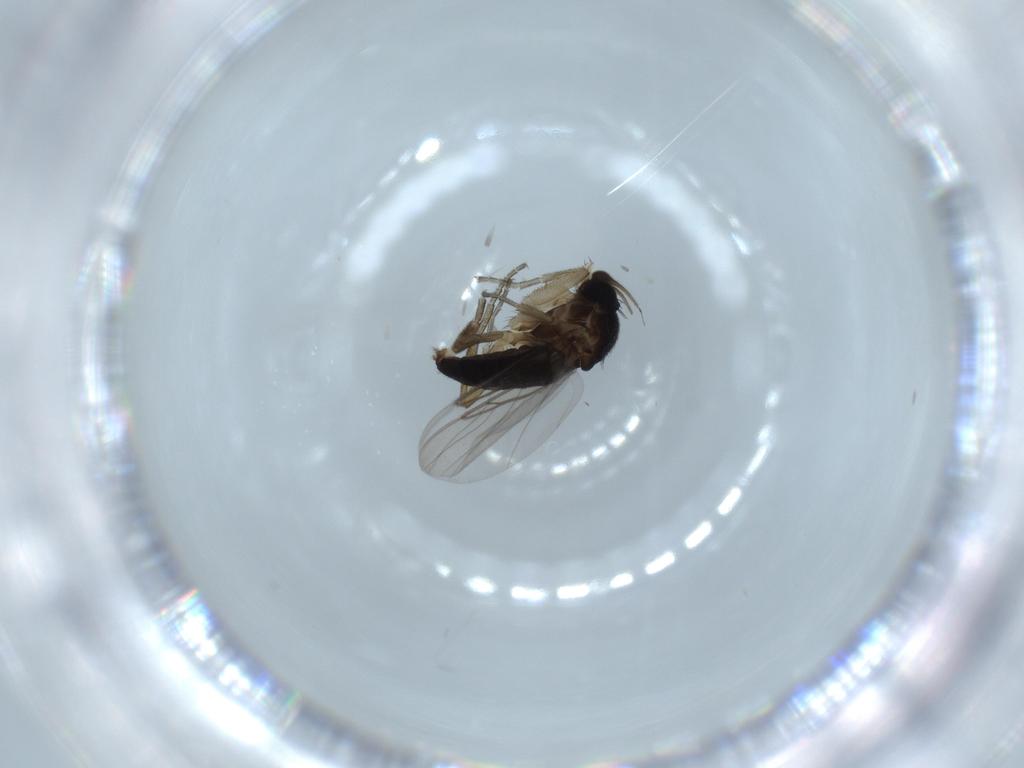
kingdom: Animalia
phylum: Arthropoda
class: Insecta
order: Diptera
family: Phoridae
